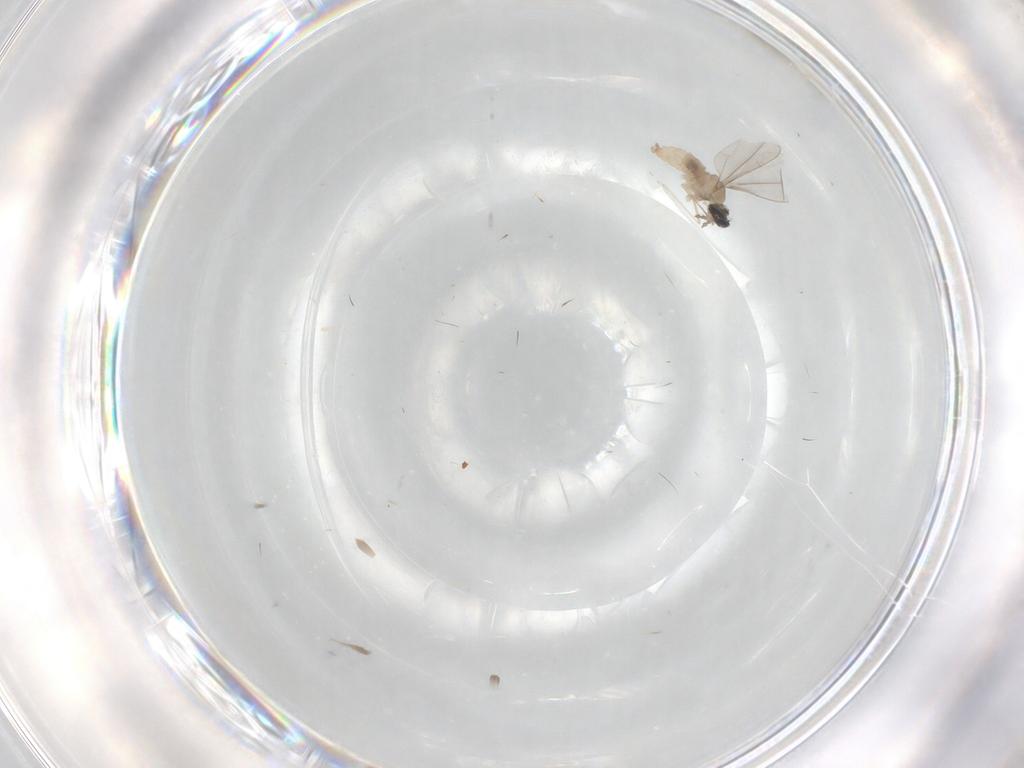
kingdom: Animalia
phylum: Arthropoda
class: Insecta
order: Diptera
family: Cecidomyiidae
